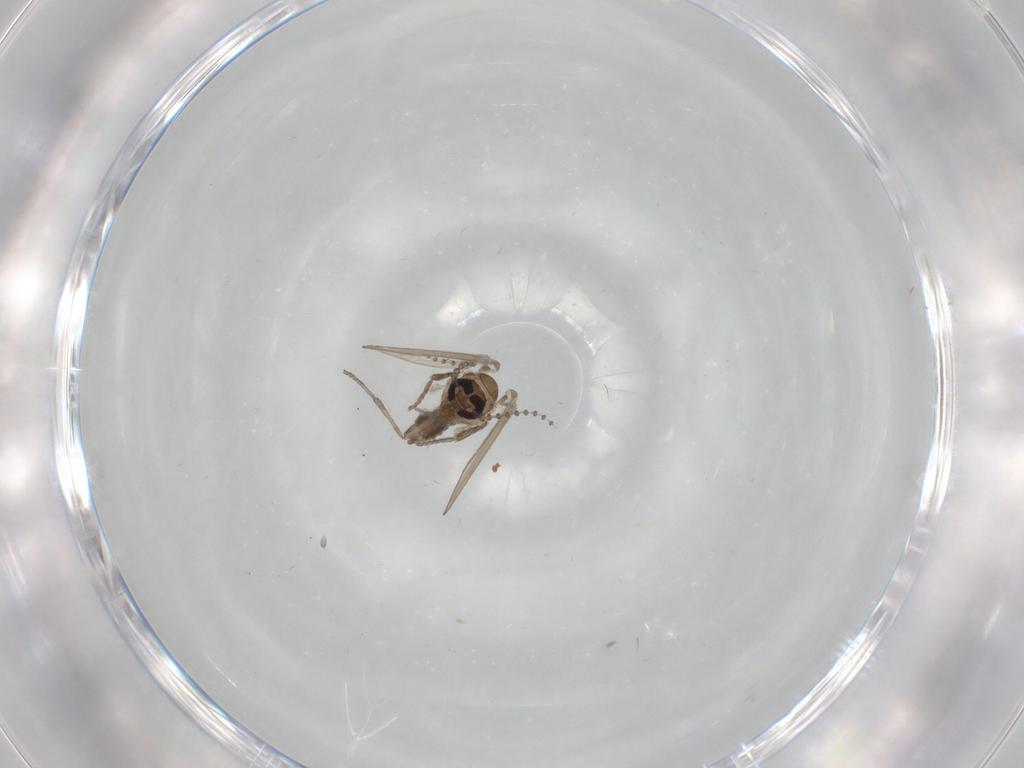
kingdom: Animalia
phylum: Arthropoda
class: Insecta
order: Diptera
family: Psychodidae
